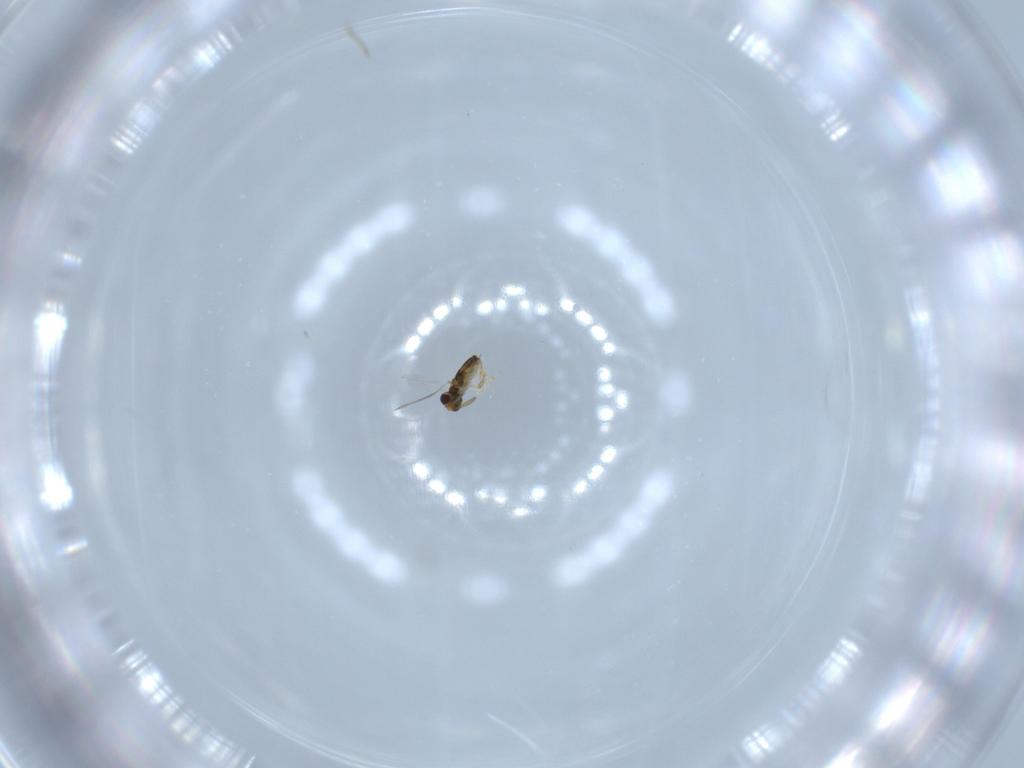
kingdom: Animalia
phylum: Arthropoda
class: Insecta
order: Hymenoptera
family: Aphelinidae
